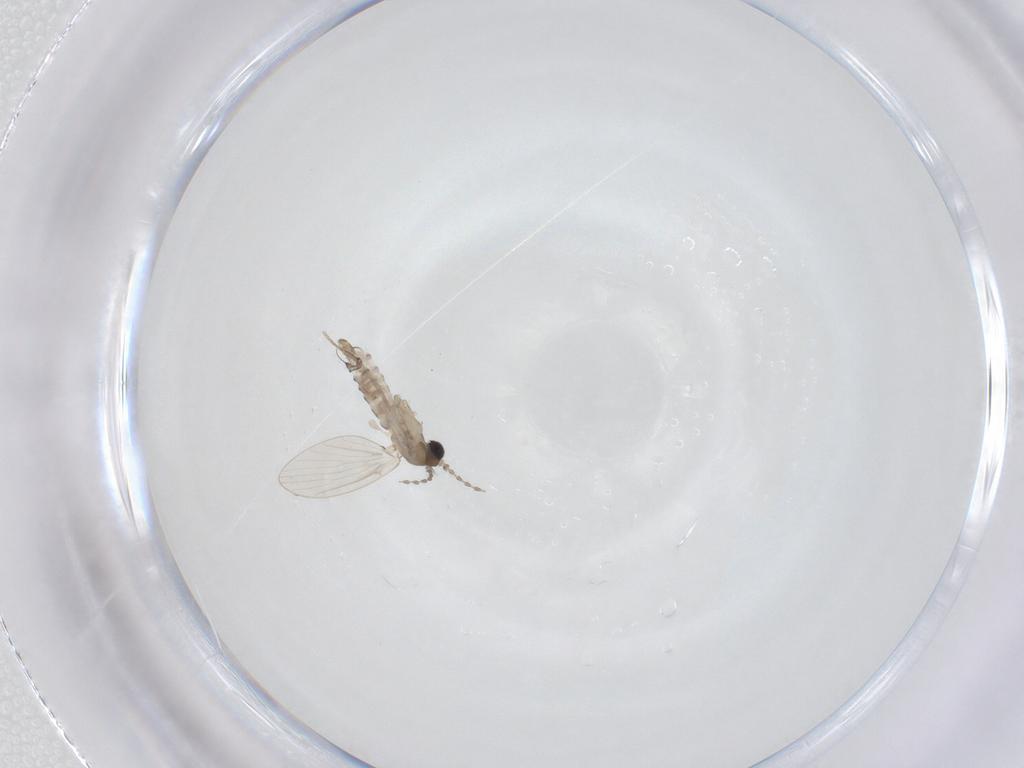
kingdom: Animalia
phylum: Arthropoda
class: Insecta
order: Diptera
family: Psychodidae
